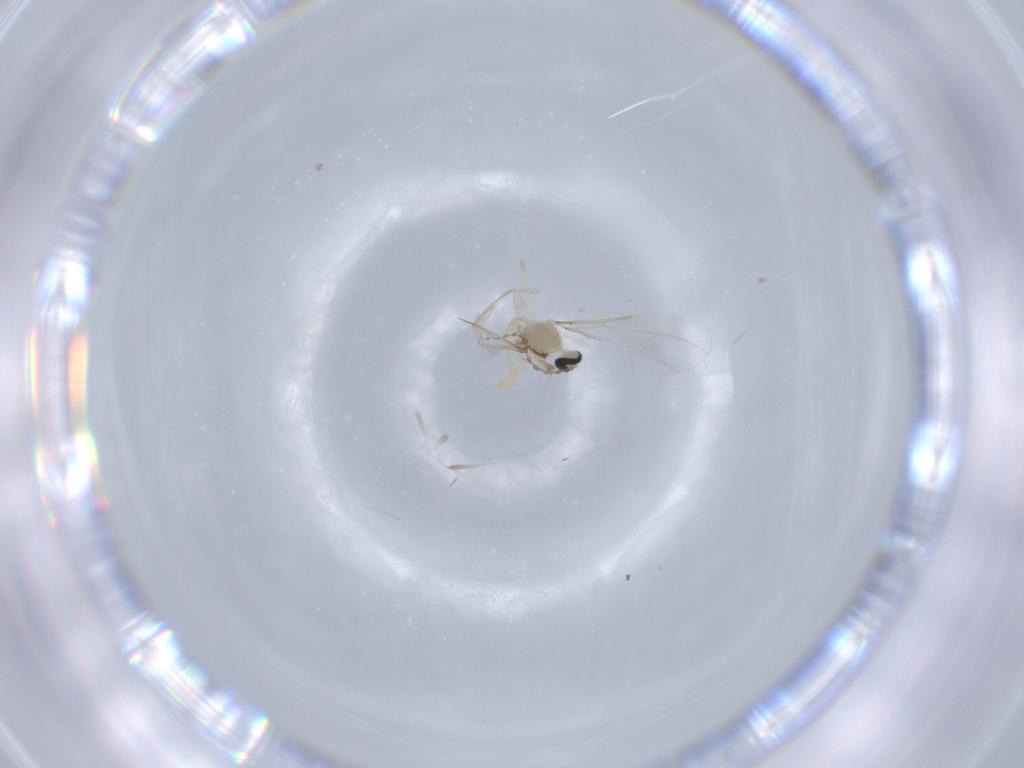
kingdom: Animalia
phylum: Arthropoda
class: Insecta
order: Diptera
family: Cecidomyiidae
